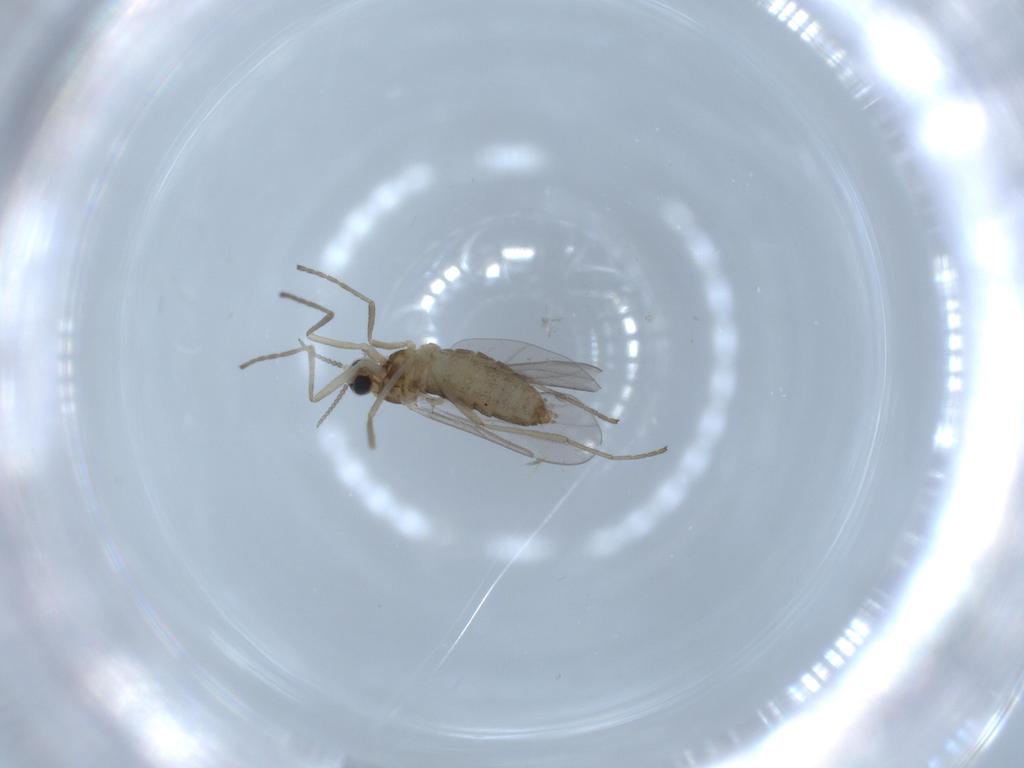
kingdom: Animalia
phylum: Arthropoda
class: Insecta
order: Diptera
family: Cecidomyiidae
